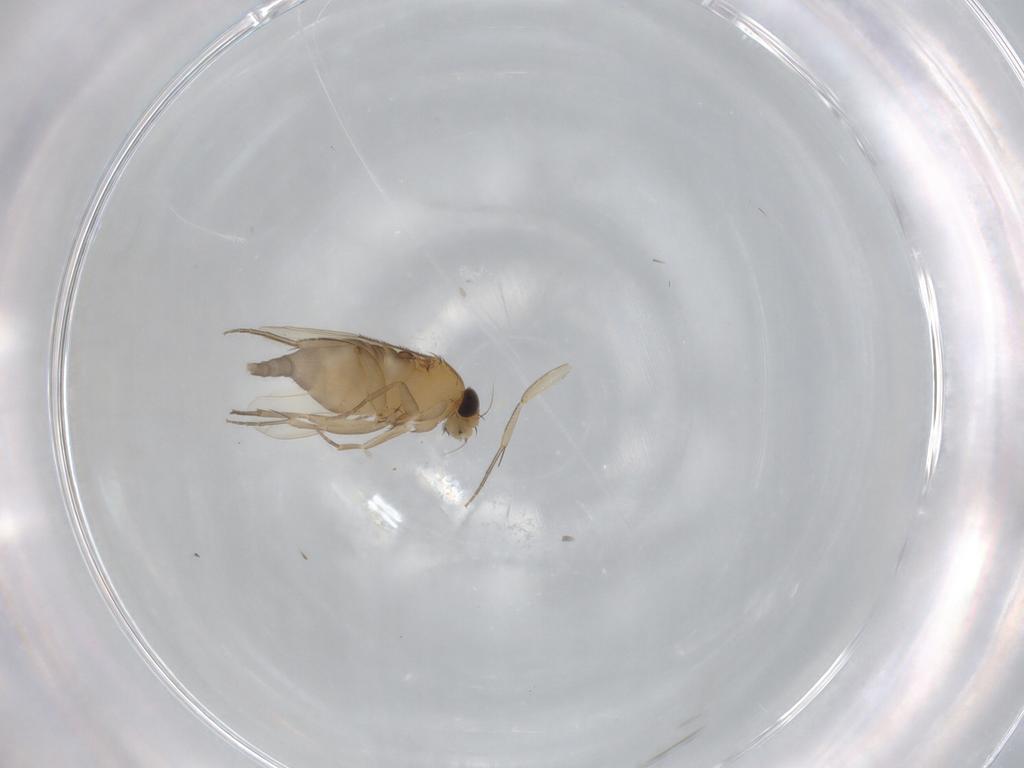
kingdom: Animalia
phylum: Arthropoda
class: Insecta
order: Diptera
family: Phoridae
